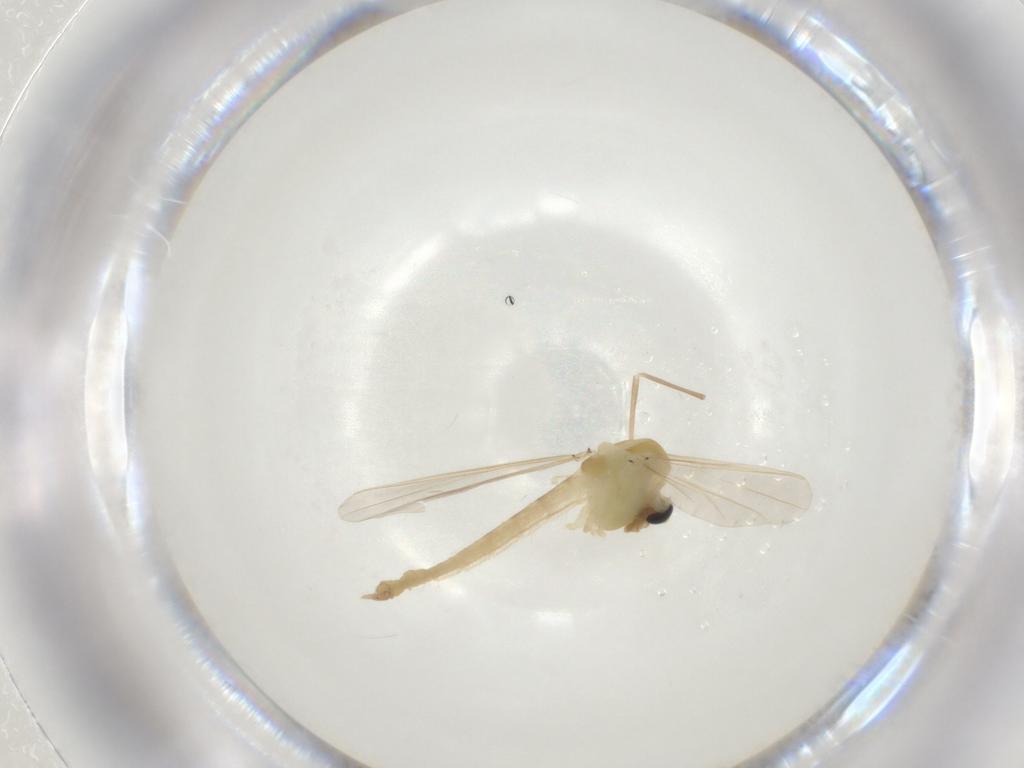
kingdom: Animalia
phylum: Arthropoda
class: Insecta
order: Diptera
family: Chironomidae
